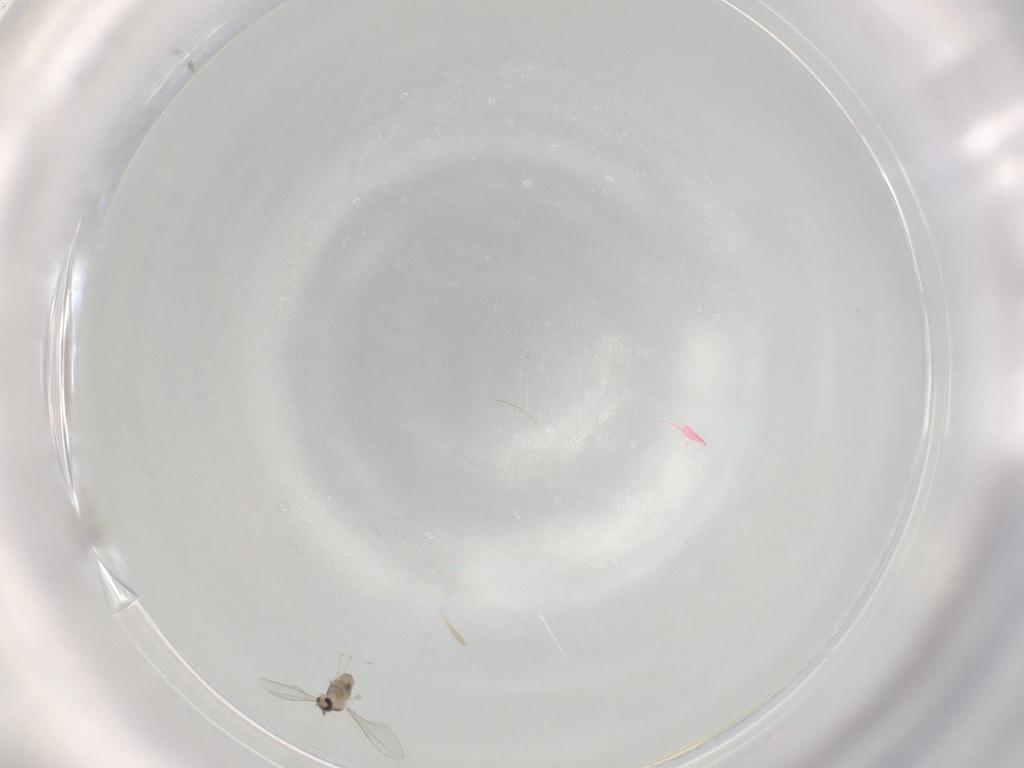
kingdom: Animalia
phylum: Arthropoda
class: Insecta
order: Diptera
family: Cecidomyiidae
